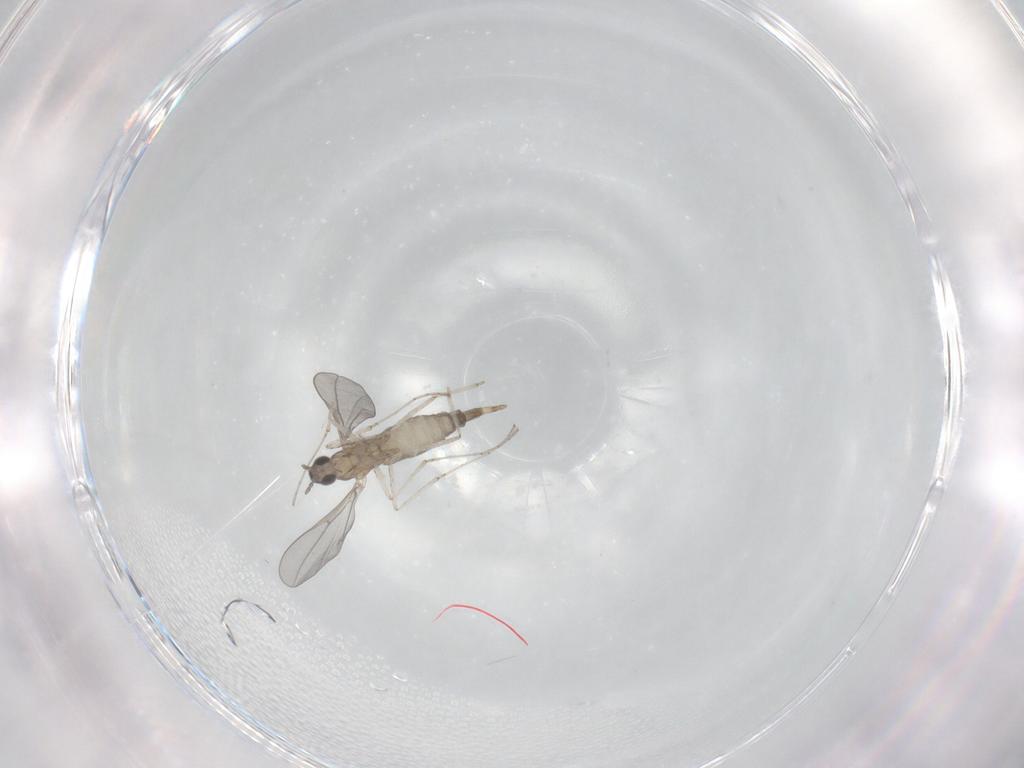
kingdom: Animalia
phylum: Arthropoda
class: Insecta
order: Diptera
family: Cecidomyiidae
